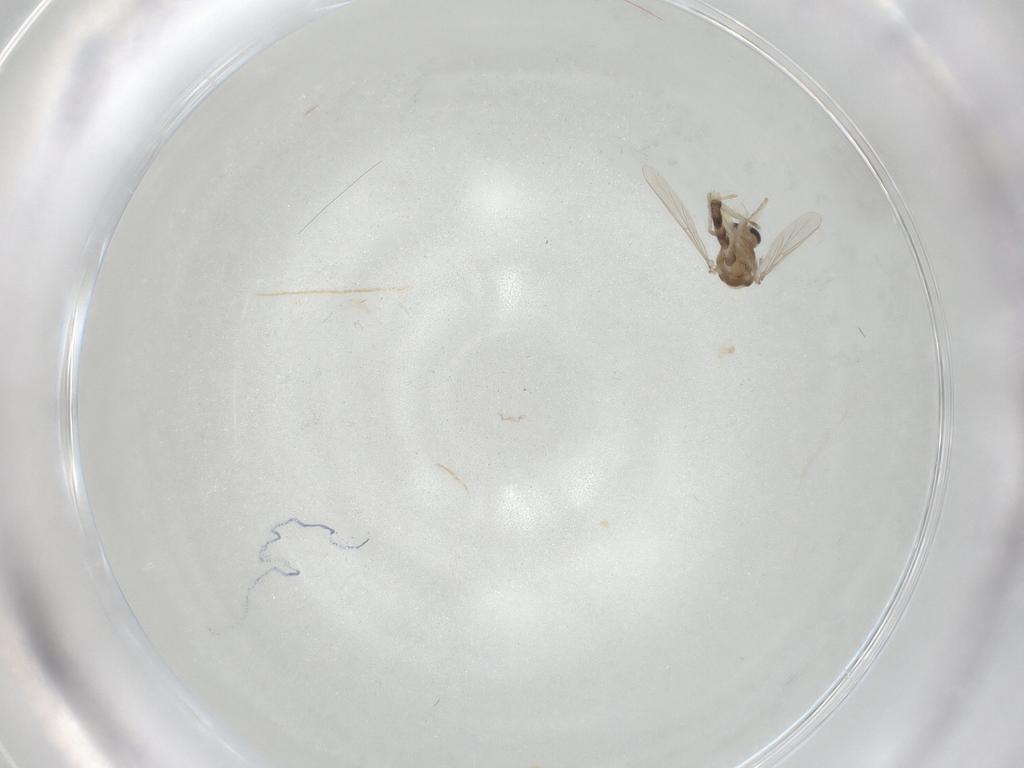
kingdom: Animalia
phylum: Arthropoda
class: Insecta
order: Diptera
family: Chironomidae
